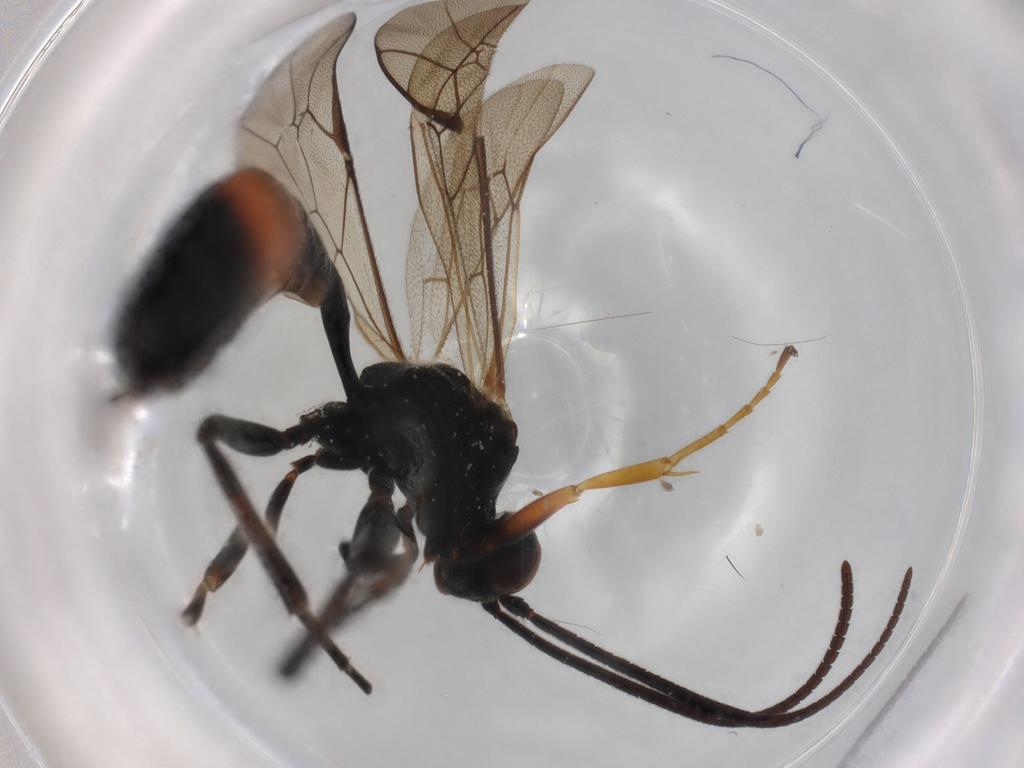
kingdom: Animalia
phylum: Arthropoda
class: Insecta
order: Hymenoptera
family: Ichneumonidae
